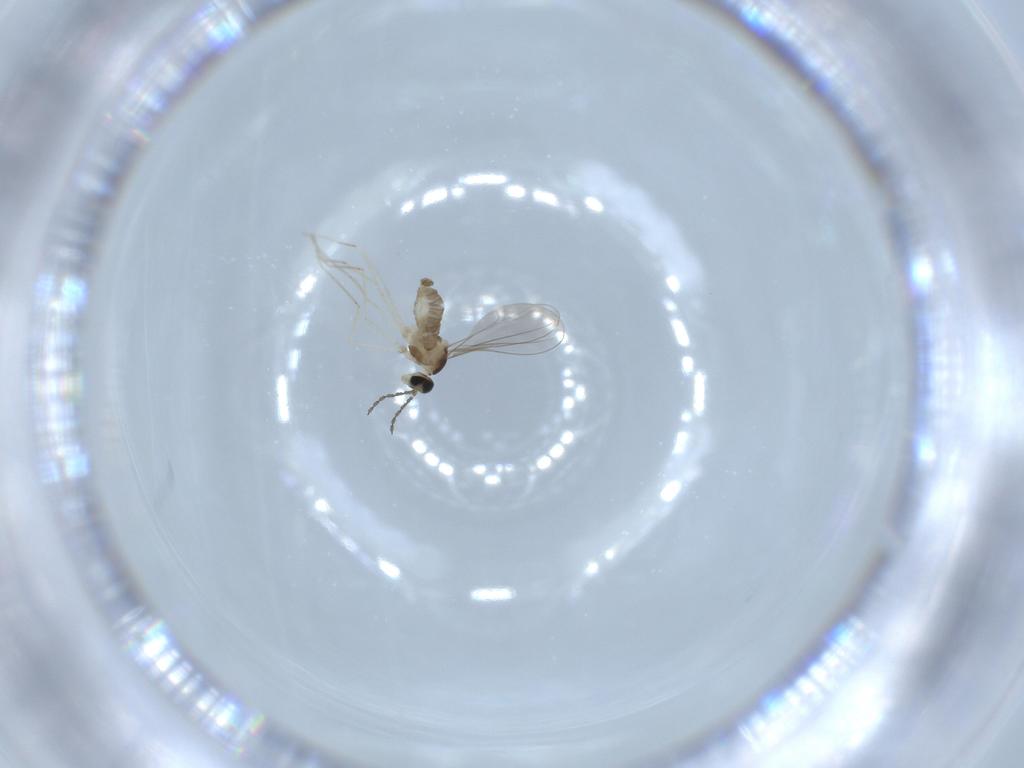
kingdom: Animalia
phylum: Arthropoda
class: Insecta
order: Diptera
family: Cecidomyiidae
